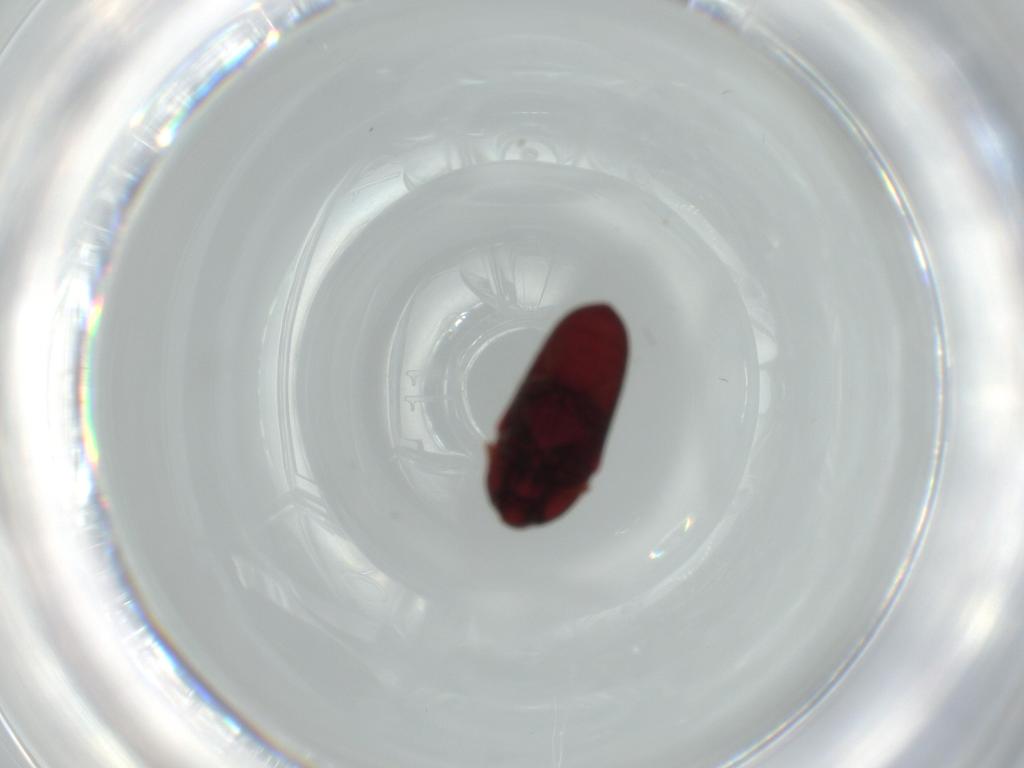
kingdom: Animalia
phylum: Arthropoda
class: Insecta
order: Coleoptera
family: Throscidae
